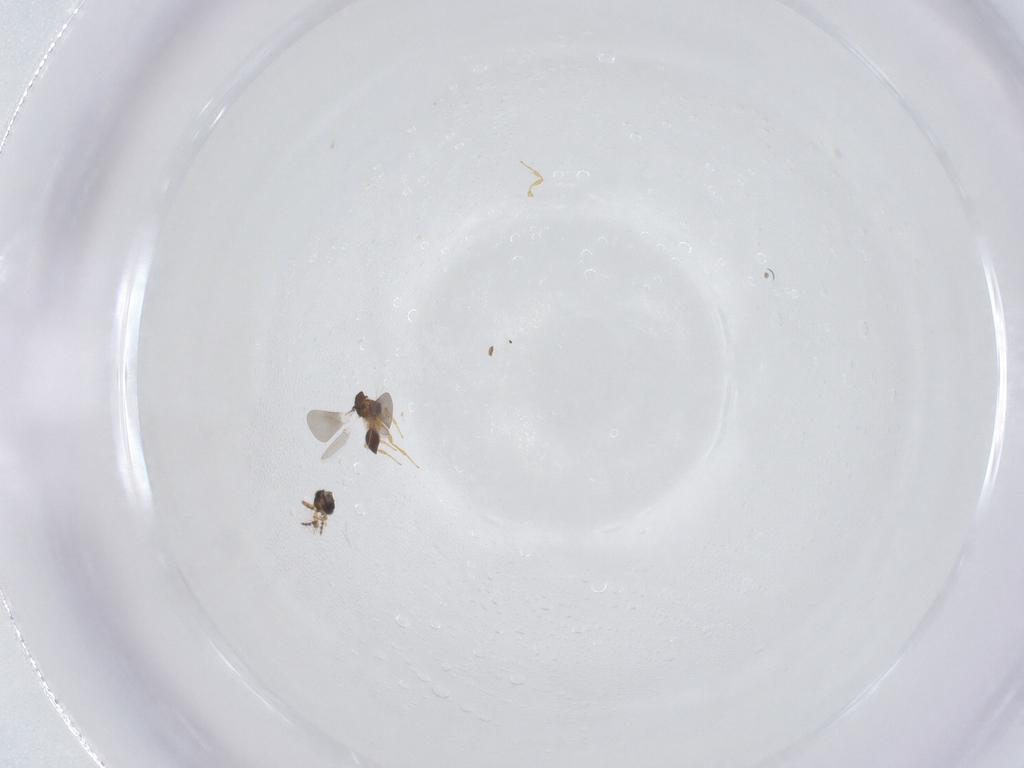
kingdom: Animalia
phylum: Arthropoda
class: Insecta
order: Hymenoptera
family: Platygastridae
